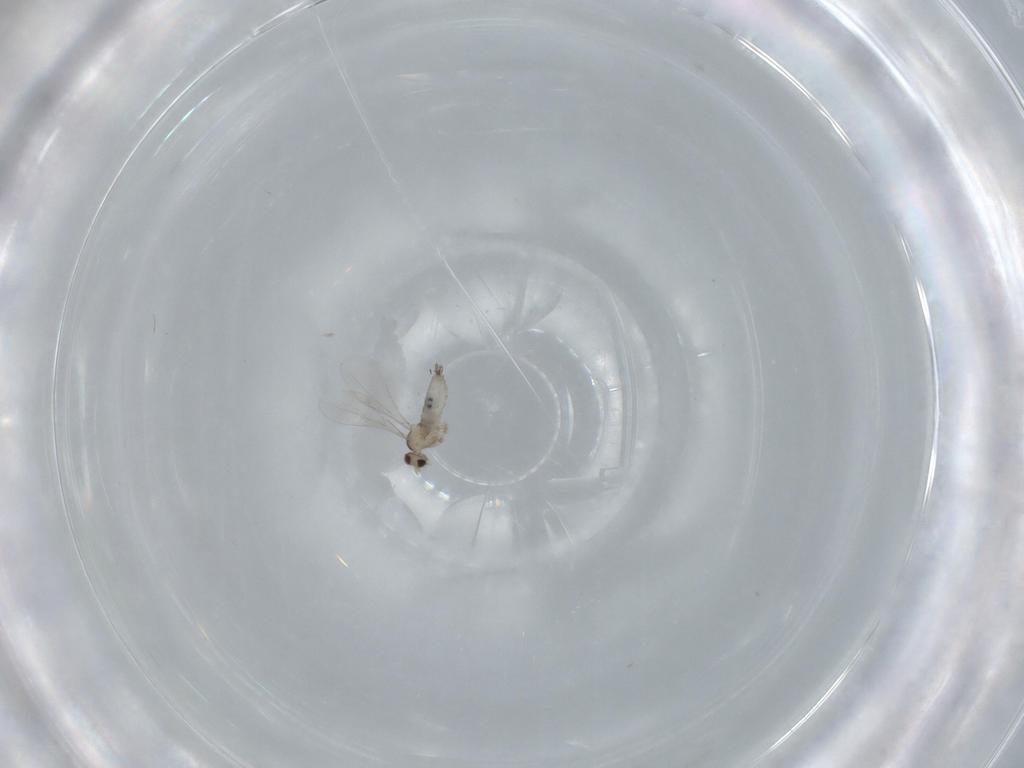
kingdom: Animalia
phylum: Arthropoda
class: Insecta
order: Diptera
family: Cecidomyiidae
